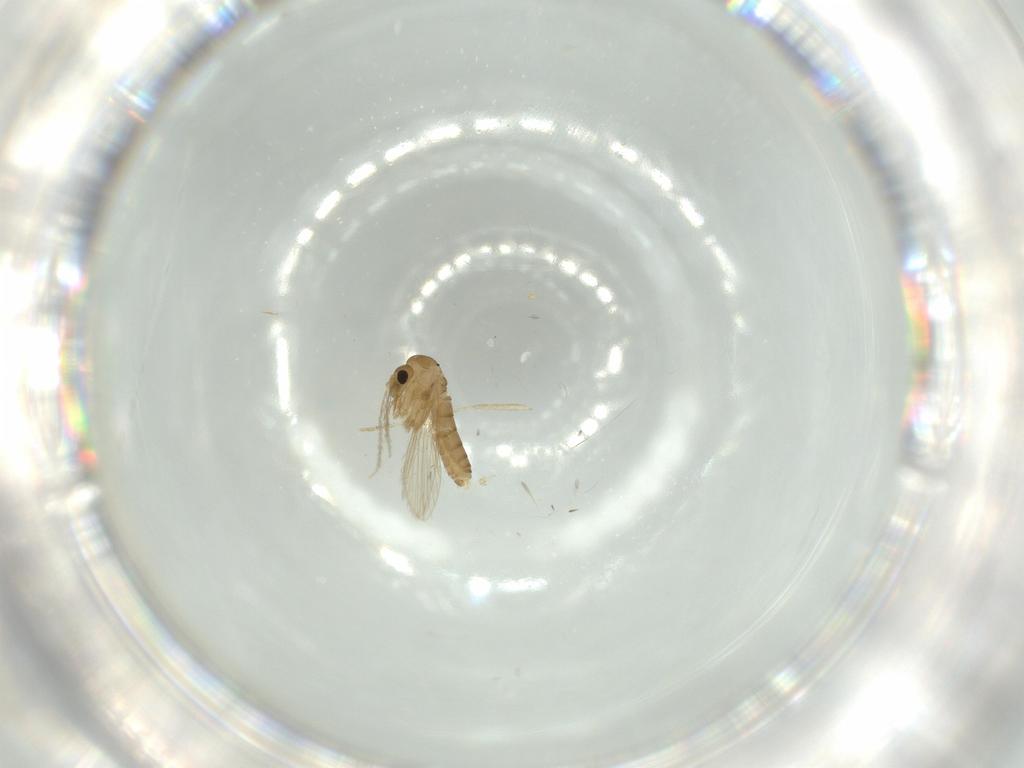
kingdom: Animalia
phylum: Arthropoda
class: Insecta
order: Diptera
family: Psychodidae
